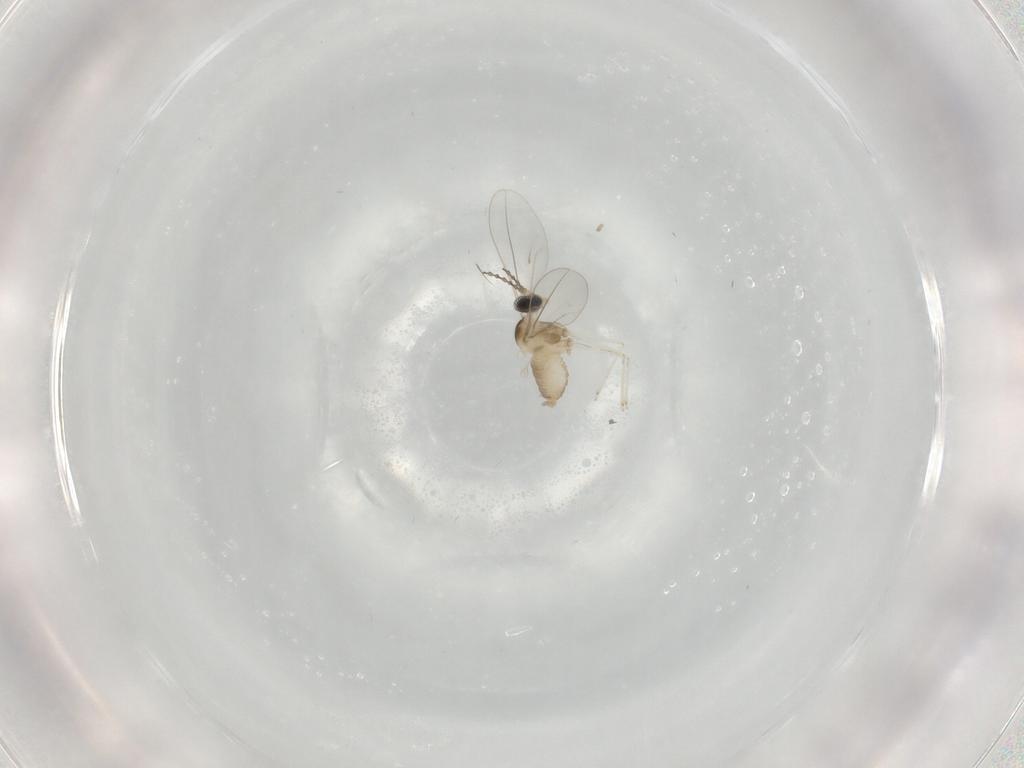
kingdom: Animalia
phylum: Arthropoda
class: Insecta
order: Diptera
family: Cecidomyiidae
